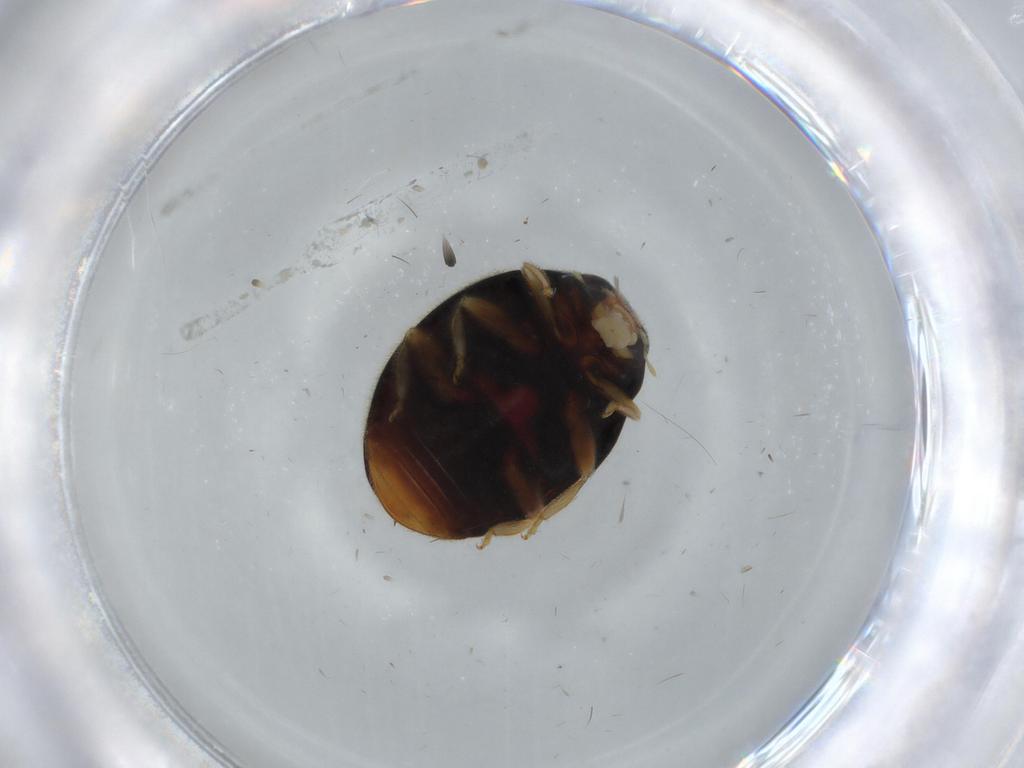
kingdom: Animalia
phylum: Arthropoda
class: Insecta
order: Coleoptera
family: Coccinellidae
